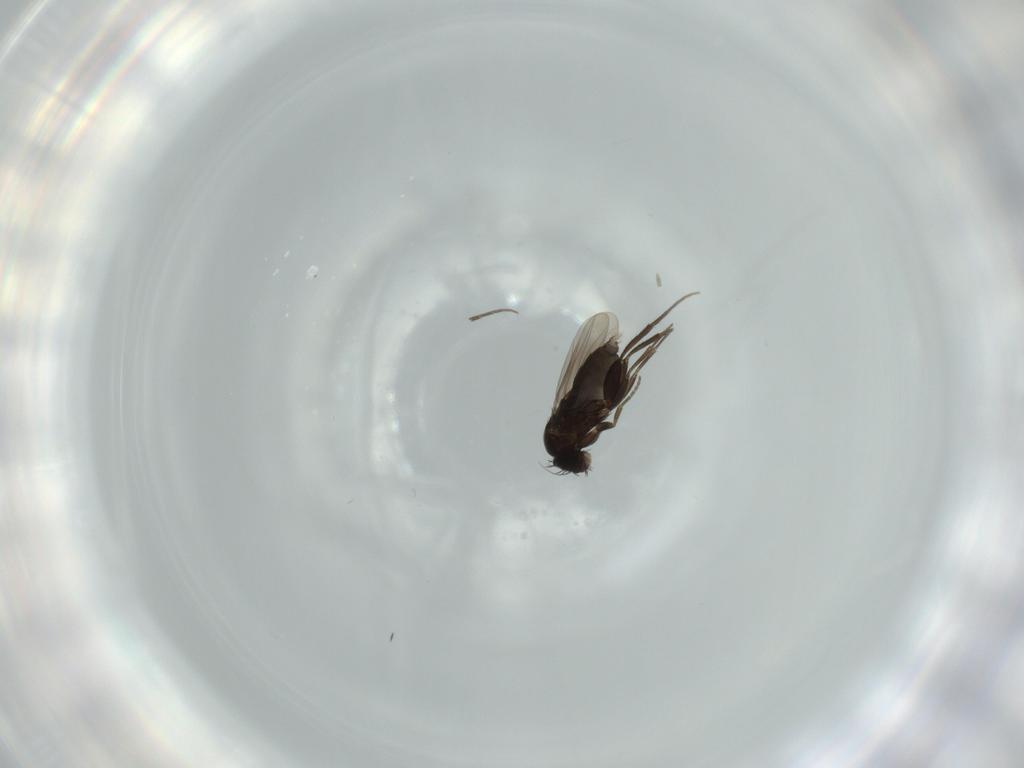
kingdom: Animalia
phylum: Arthropoda
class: Insecta
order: Diptera
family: Phoridae
